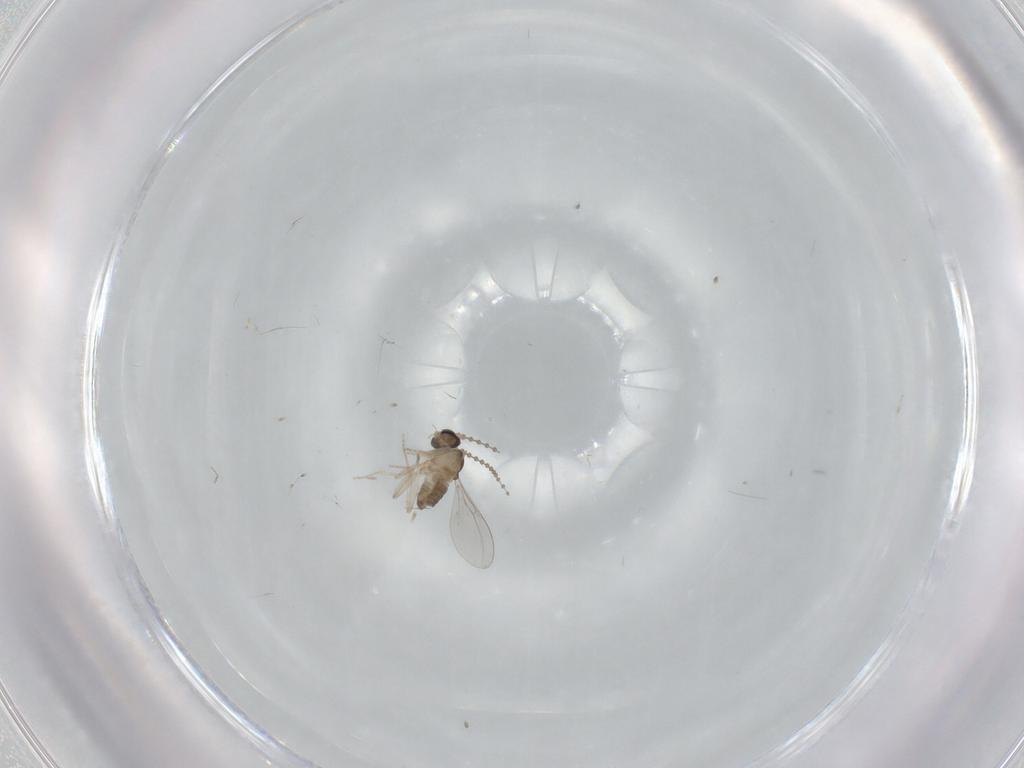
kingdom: Animalia
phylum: Arthropoda
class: Insecta
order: Diptera
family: Cecidomyiidae
